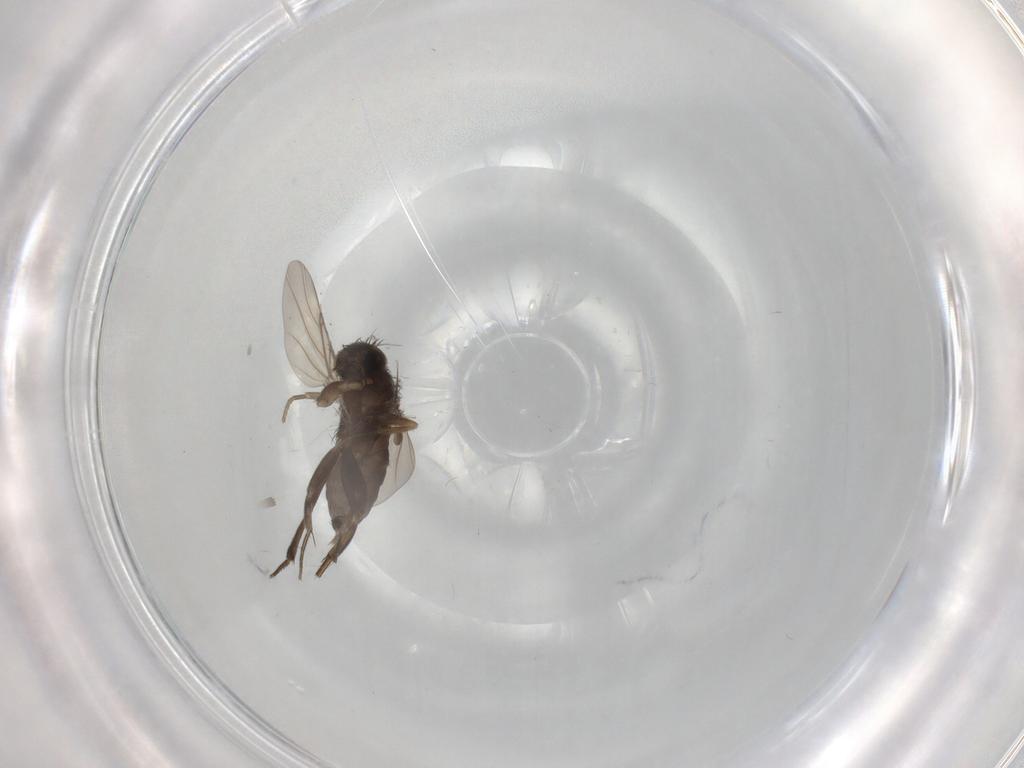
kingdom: Animalia
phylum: Arthropoda
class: Insecta
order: Diptera
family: Phoridae
